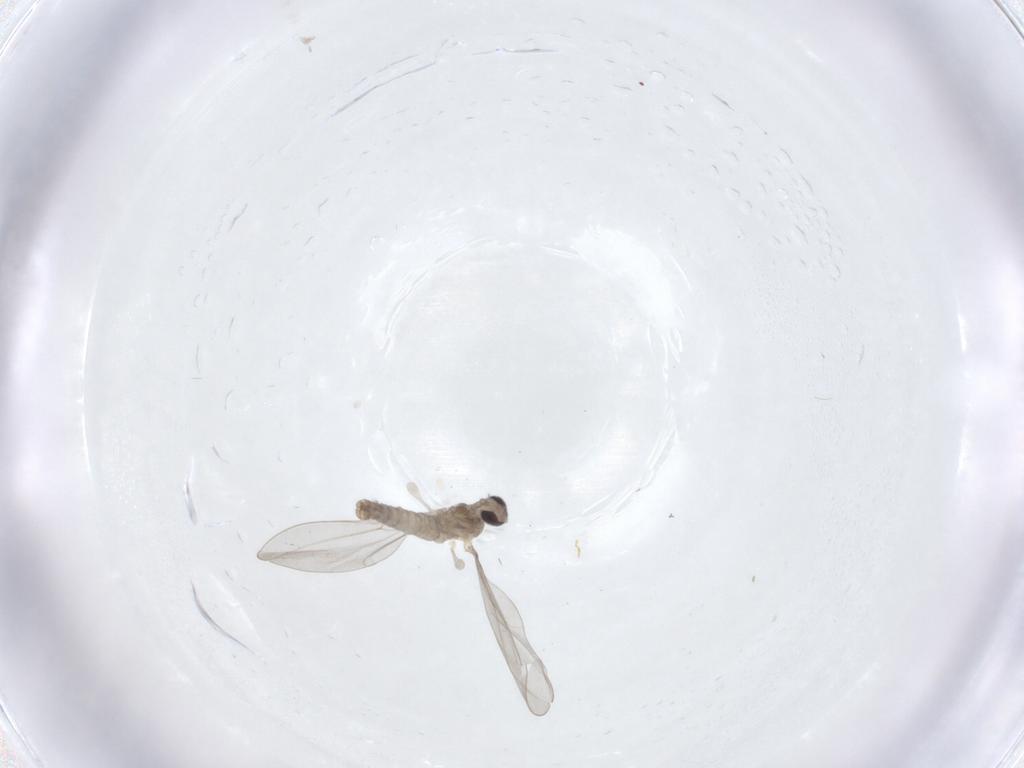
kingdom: Animalia
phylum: Arthropoda
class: Insecta
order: Diptera
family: Cecidomyiidae
